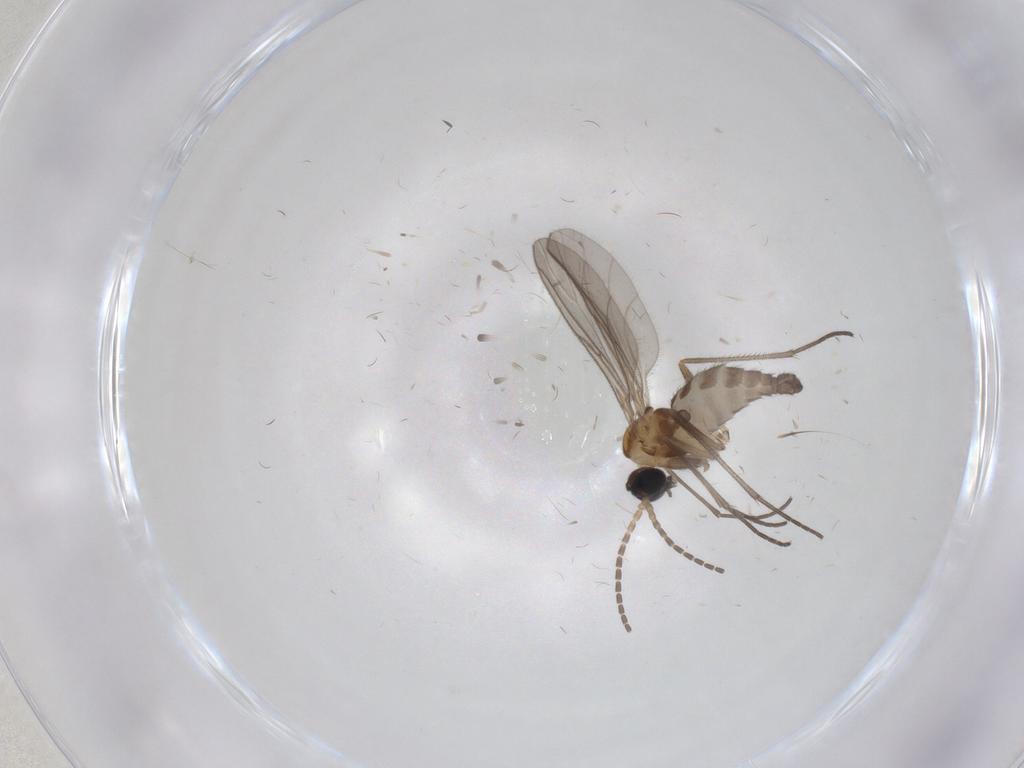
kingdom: Animalia
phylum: Arthropoda
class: Insecta
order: Diptera
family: Sciaridae
